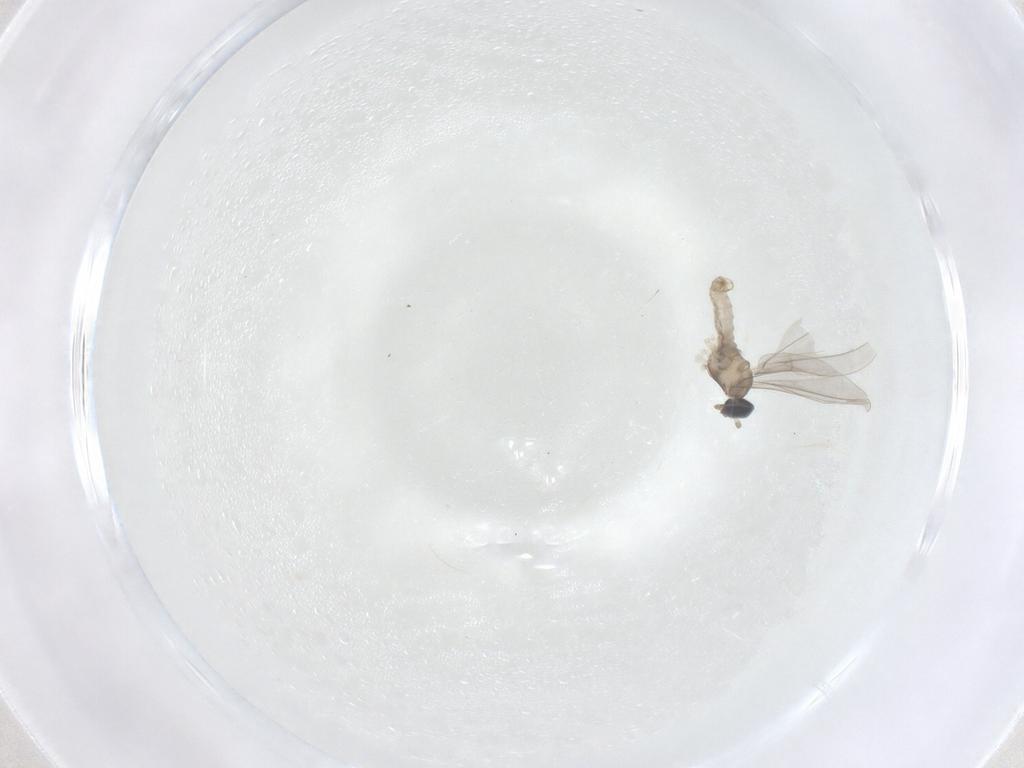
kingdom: Animalia
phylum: Arthropoda
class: Insecta
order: Diptera
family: Cecidomyiidae
